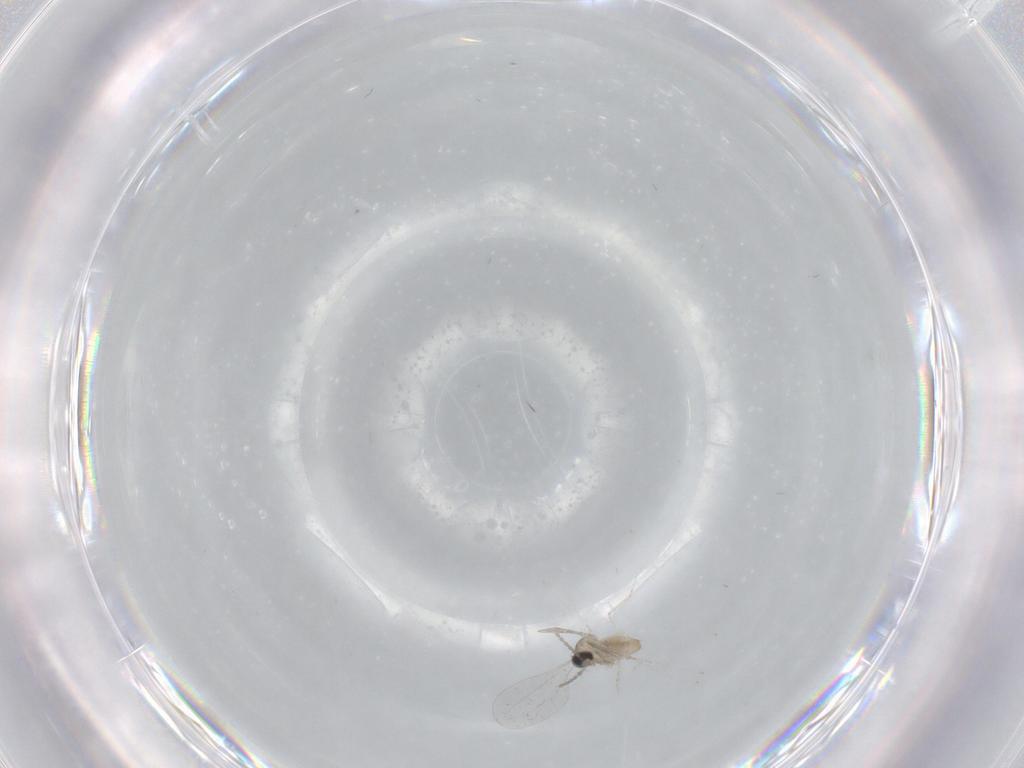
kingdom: Animalia
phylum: Arthropoda
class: Insecta
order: Diptera
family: Cecidomyiidae
